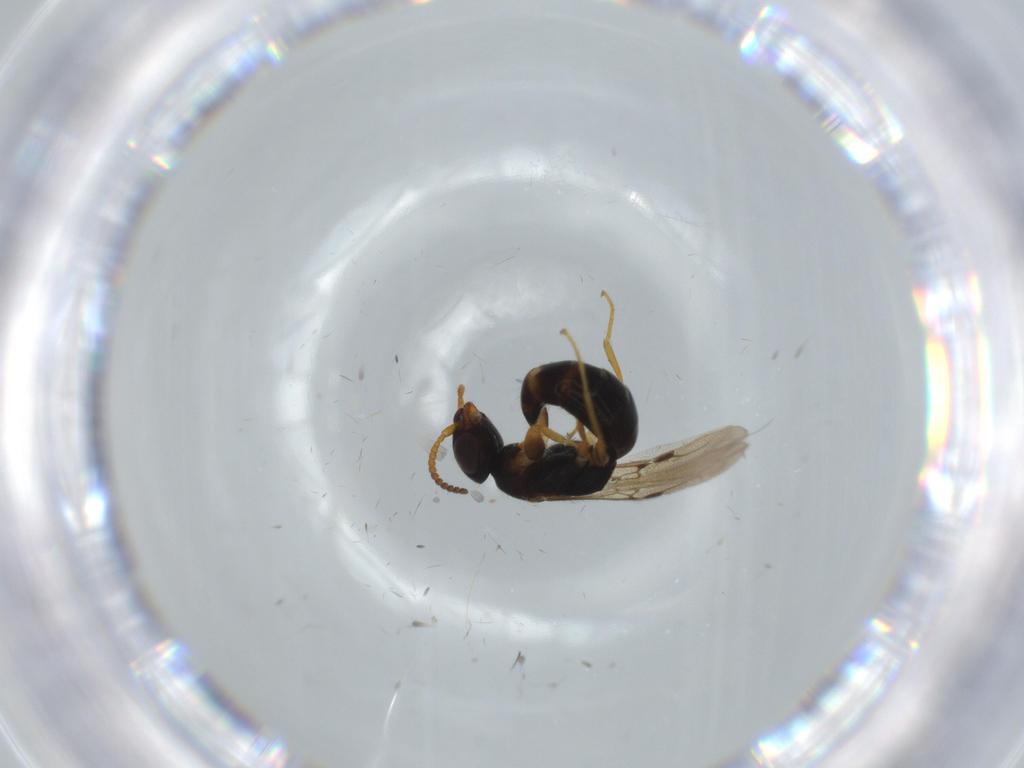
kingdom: Animalia
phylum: Arthropoda
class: Insecta
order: Hymenoptera
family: Bethylidae
